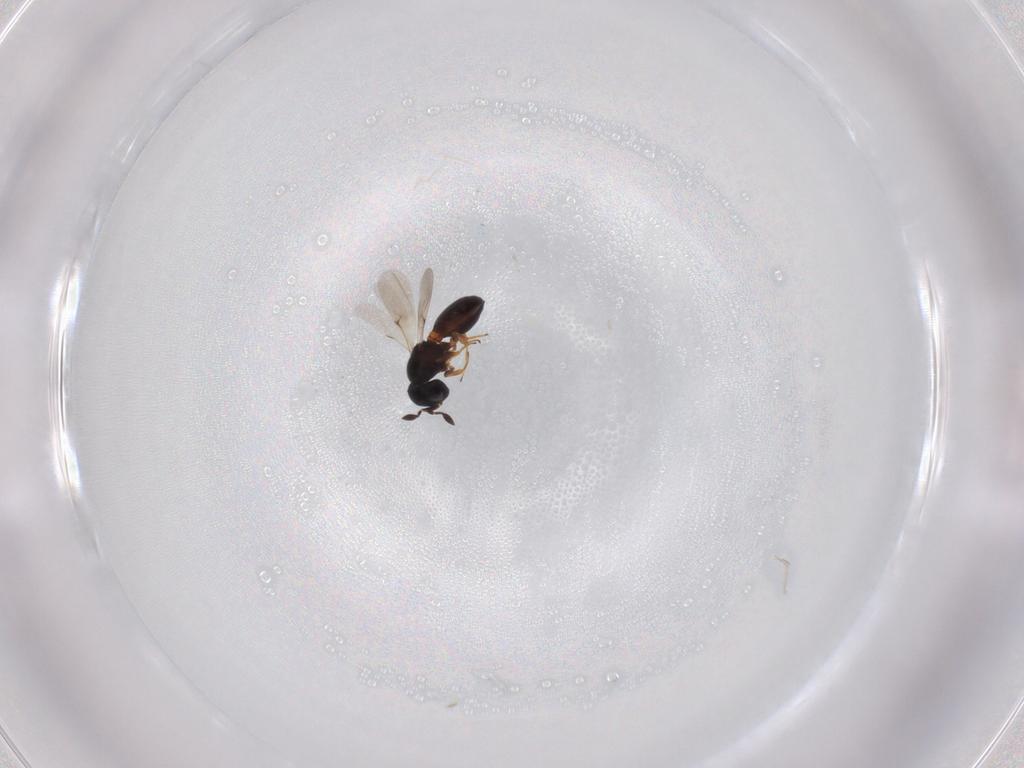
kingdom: Animalia
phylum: Arthropoda
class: Insecta
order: Hymenoptera
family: Scelionidae
